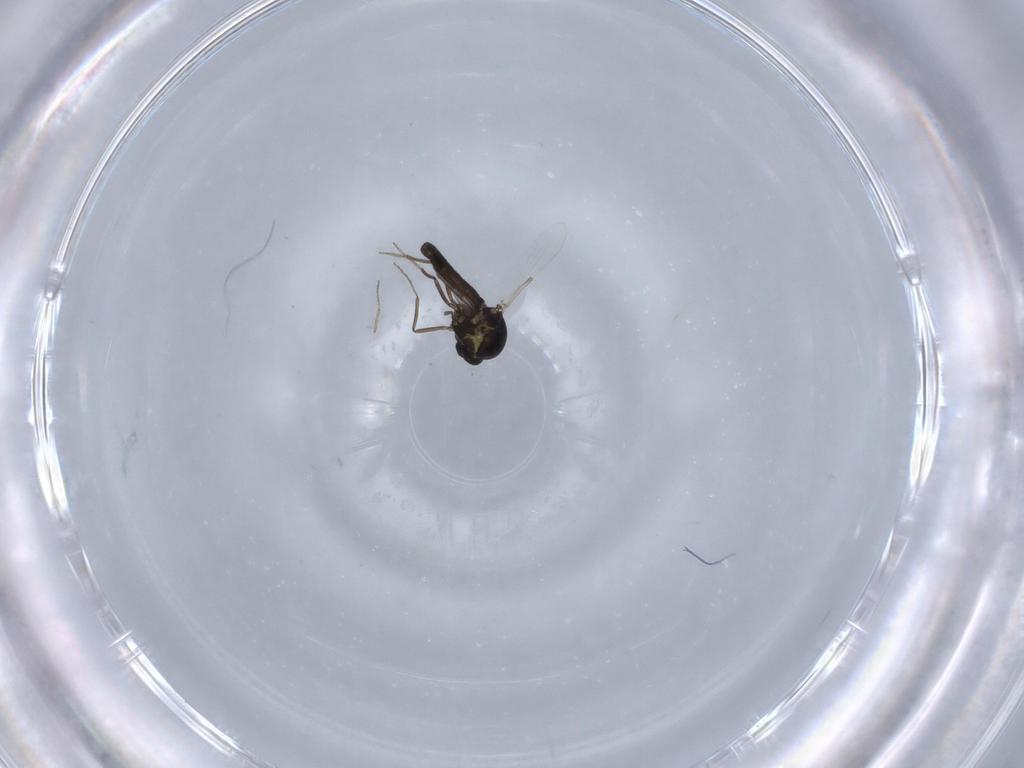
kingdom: Animalia
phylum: Arthropoda
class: Insecta
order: Diptera
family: Ceratopogonidae
